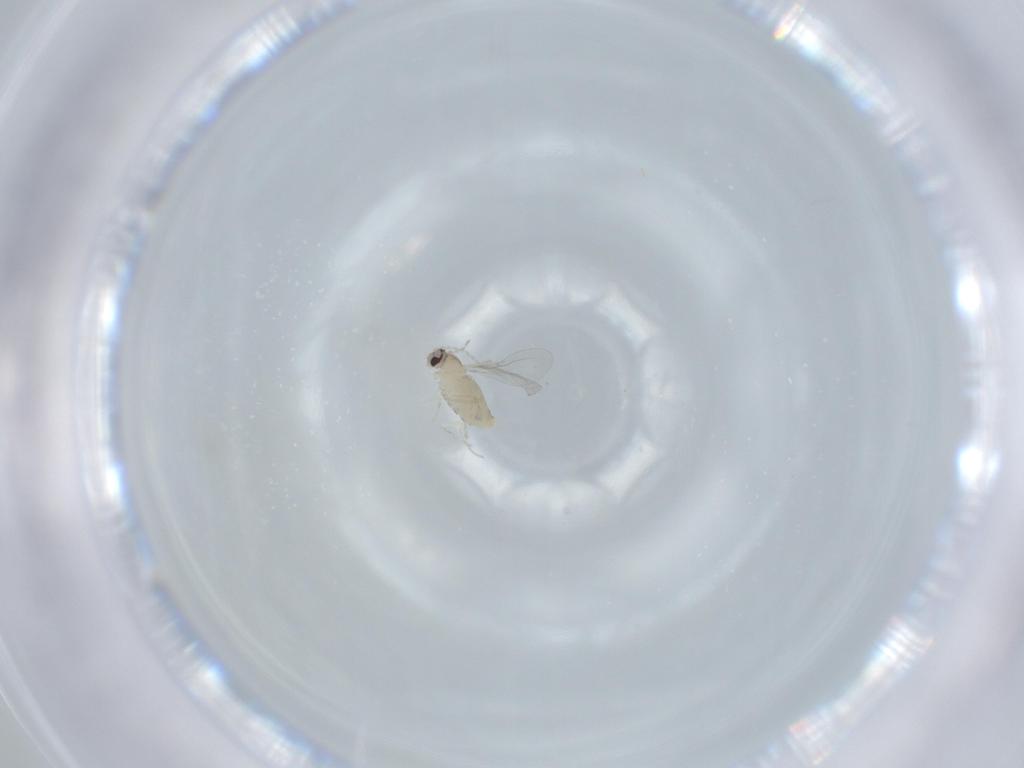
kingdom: Animalia
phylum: Arthropoda
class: Insecta
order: Diptera
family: Cecidomyiidae
